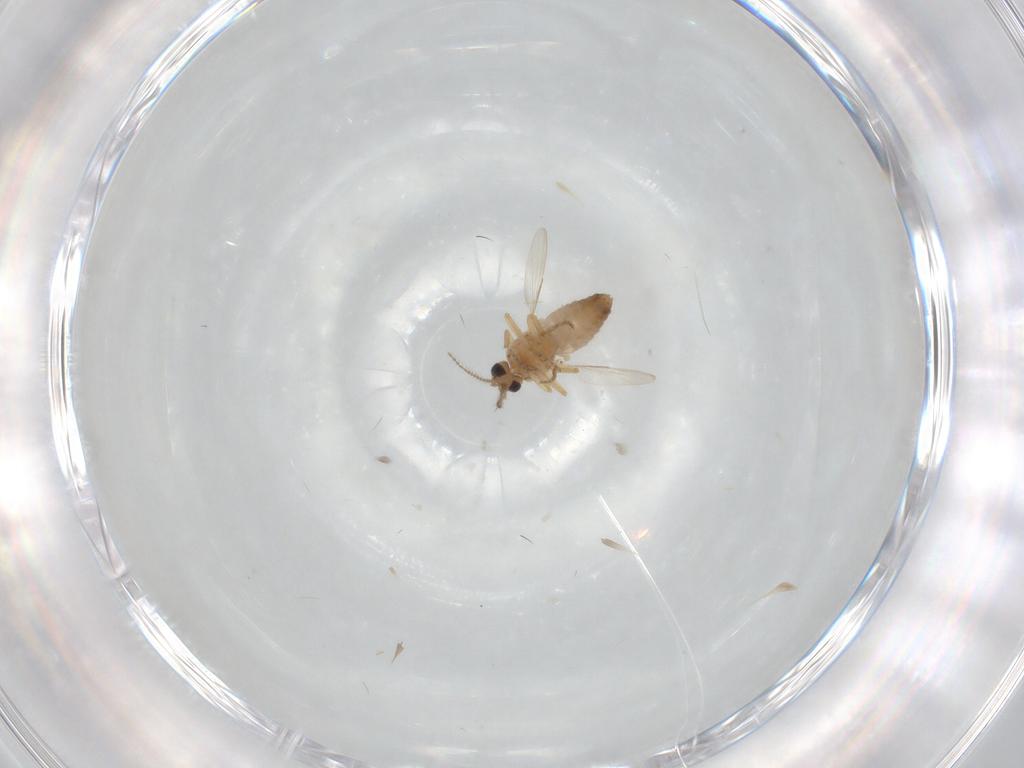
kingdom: Animalia
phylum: Arthropoda
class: Insecta
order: Diptera
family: Ceratopogonidae
